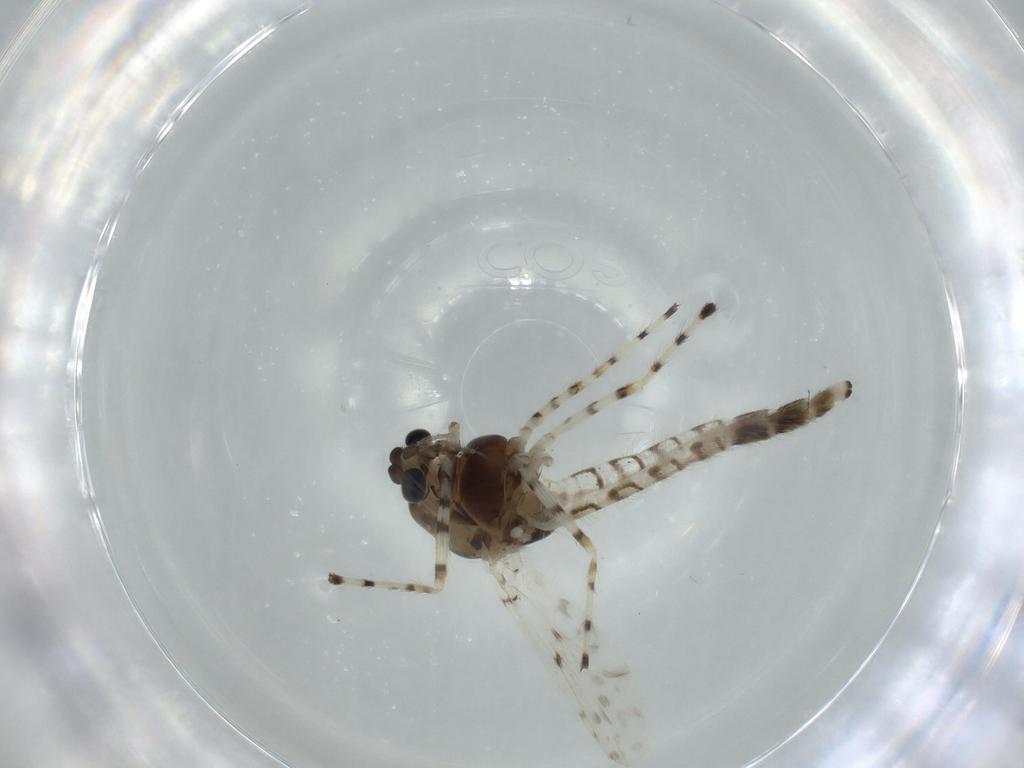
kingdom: Animalia
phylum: Arthropoda
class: Insecta
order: Diptera
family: Chironomidae
